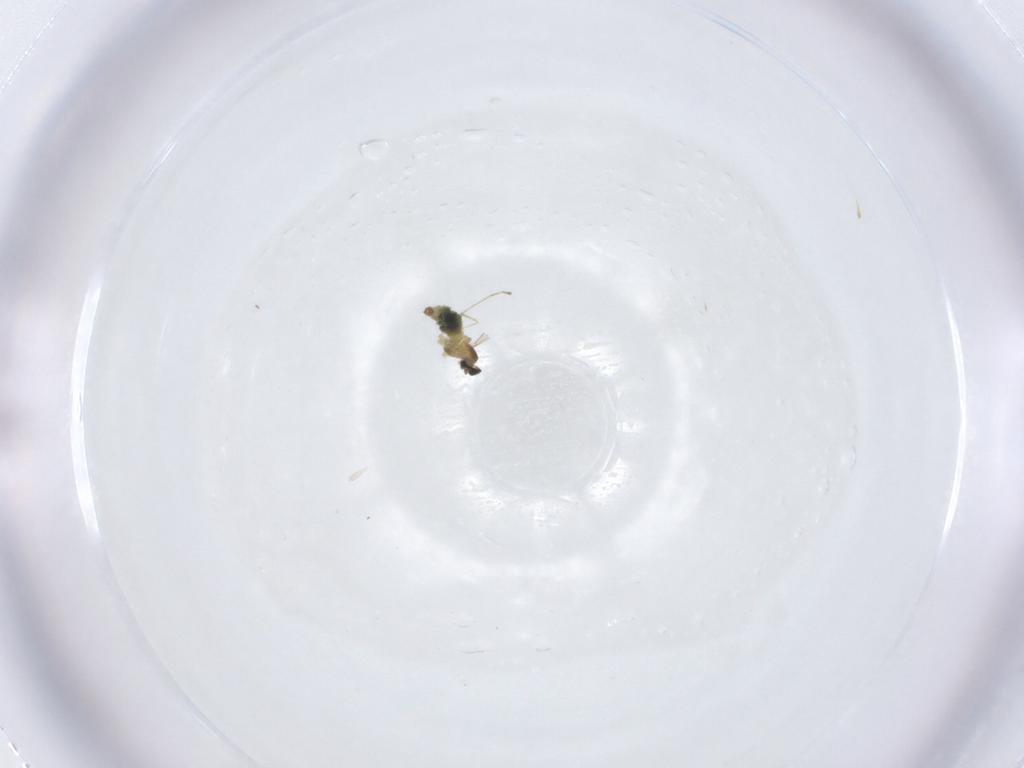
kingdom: Animalia
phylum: Arthropoda
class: Insecta
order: Diptera
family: Cecidomyiidae
